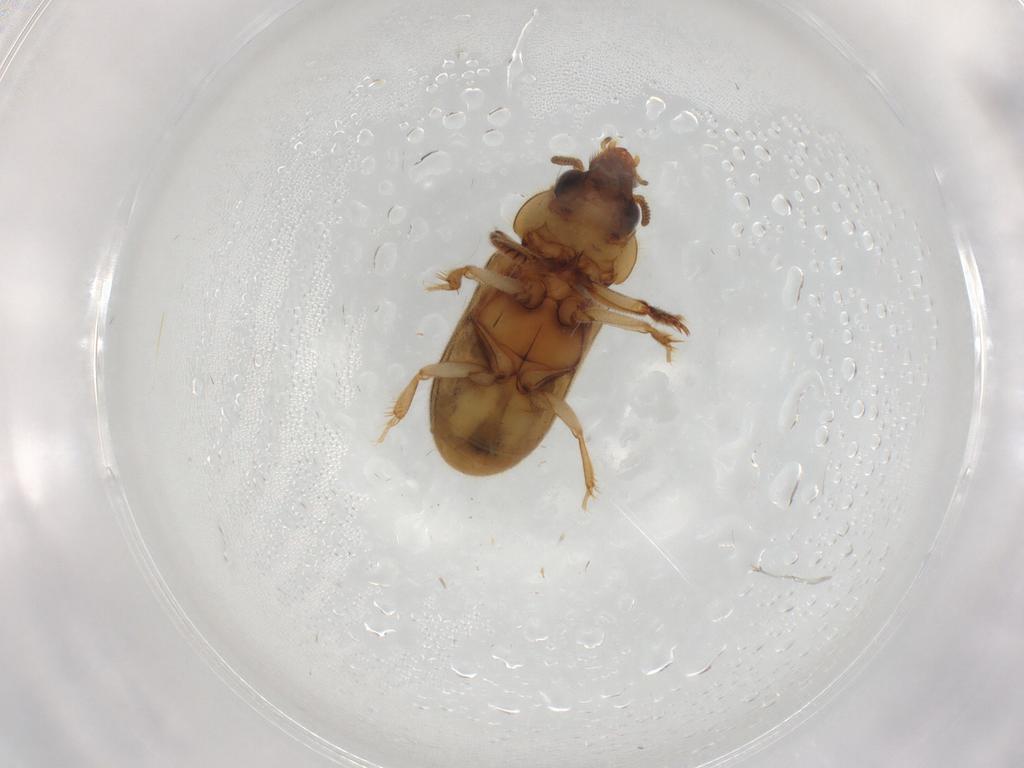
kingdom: Animalia
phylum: Arthropoda
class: Insecta
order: Coleoptera
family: Heteroceridae
